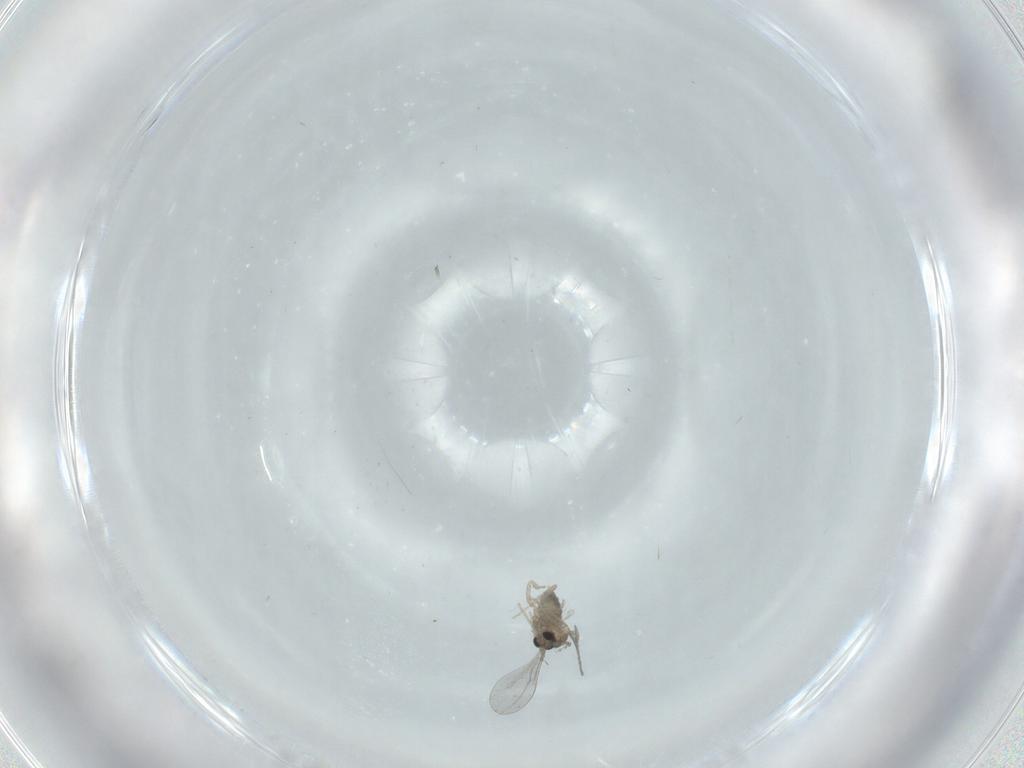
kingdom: Animalia
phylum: Arthropoda
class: Insecta
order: Diptera
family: Cecidomyiidae
